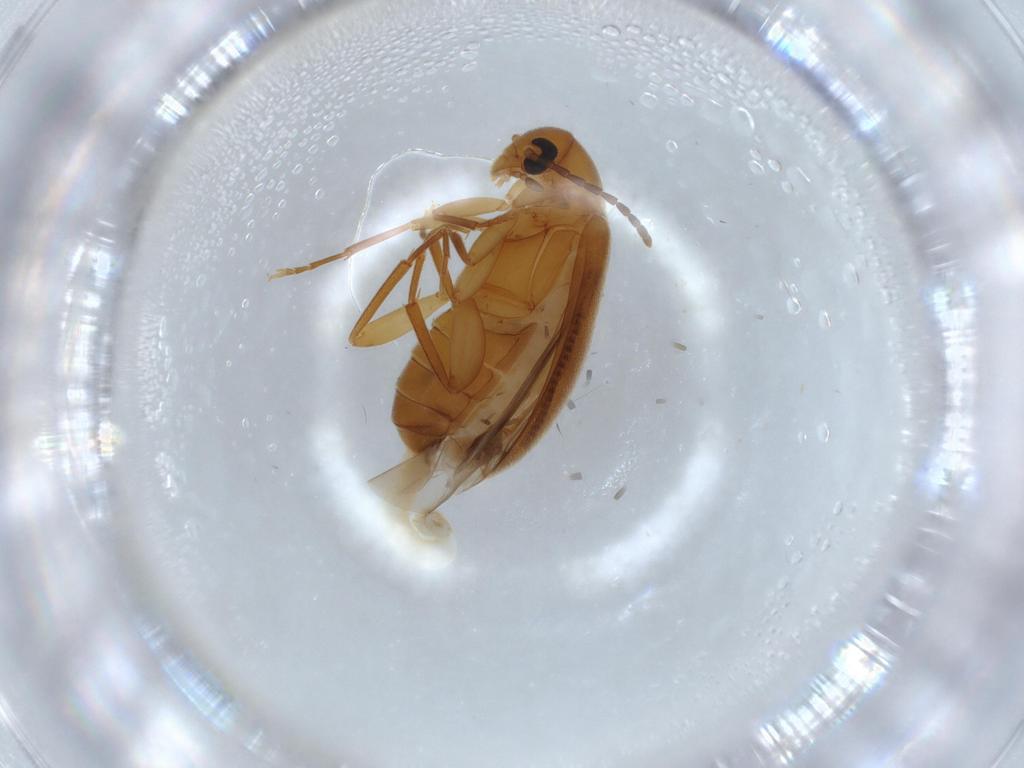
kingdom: Animalia
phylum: Arthropoda
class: Insecta
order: Coleoptera
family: Scraptiidae
